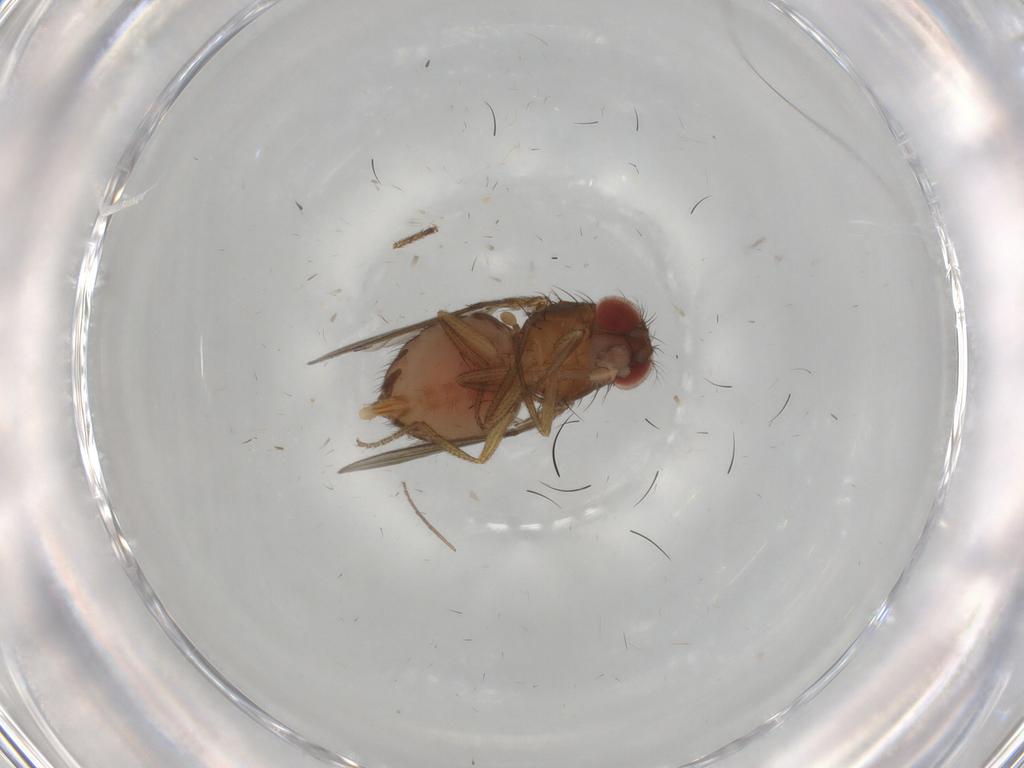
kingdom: Animalia
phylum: Arthropoda
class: Insecta
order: Diptera
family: Drosophilidae
